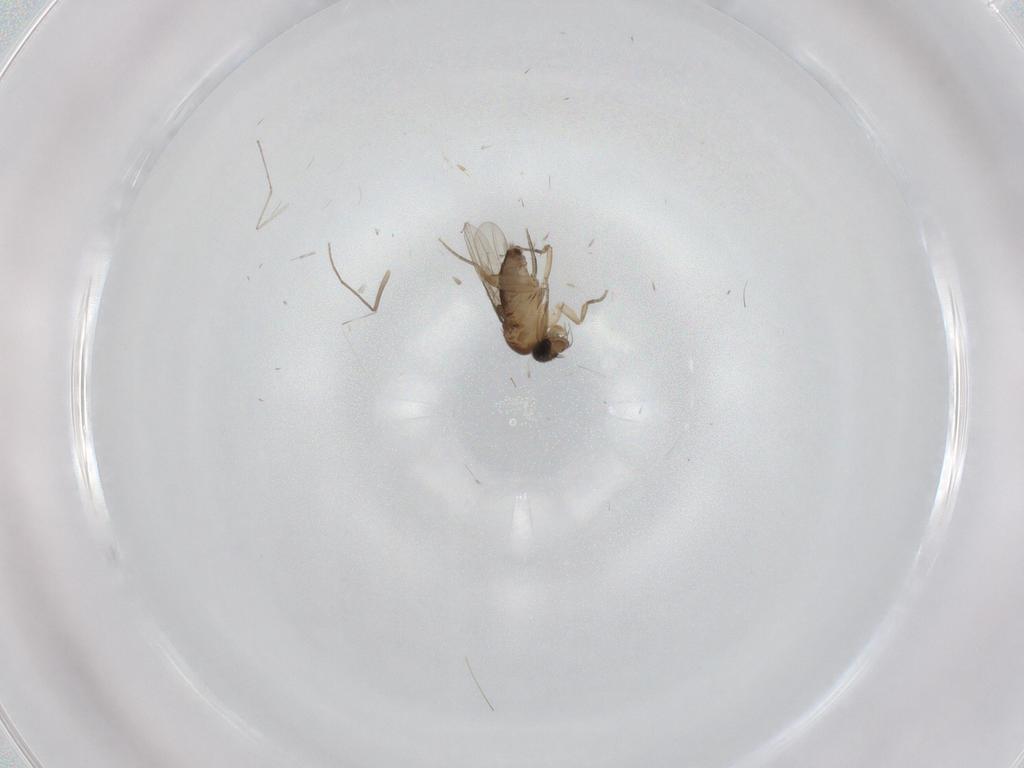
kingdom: Animalia
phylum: Arthropoda
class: Insecta
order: Diptera
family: Phoridae
